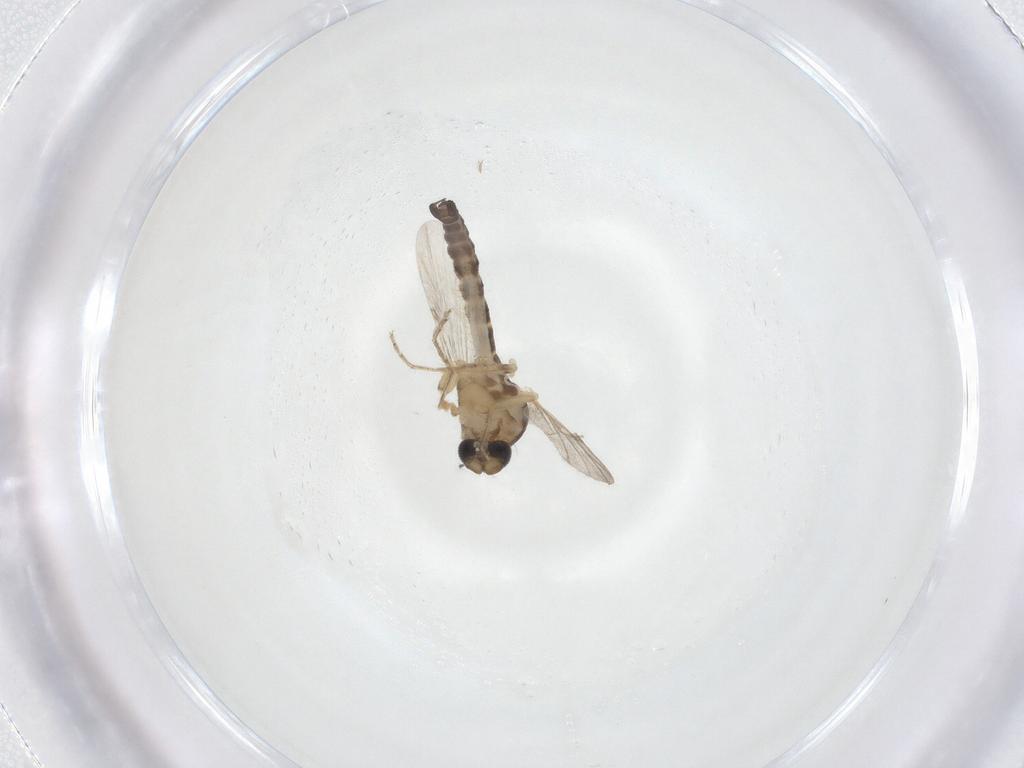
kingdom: Animalia
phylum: Arthropoda
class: Insecta
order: Diptera
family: Ceratopogonidae
